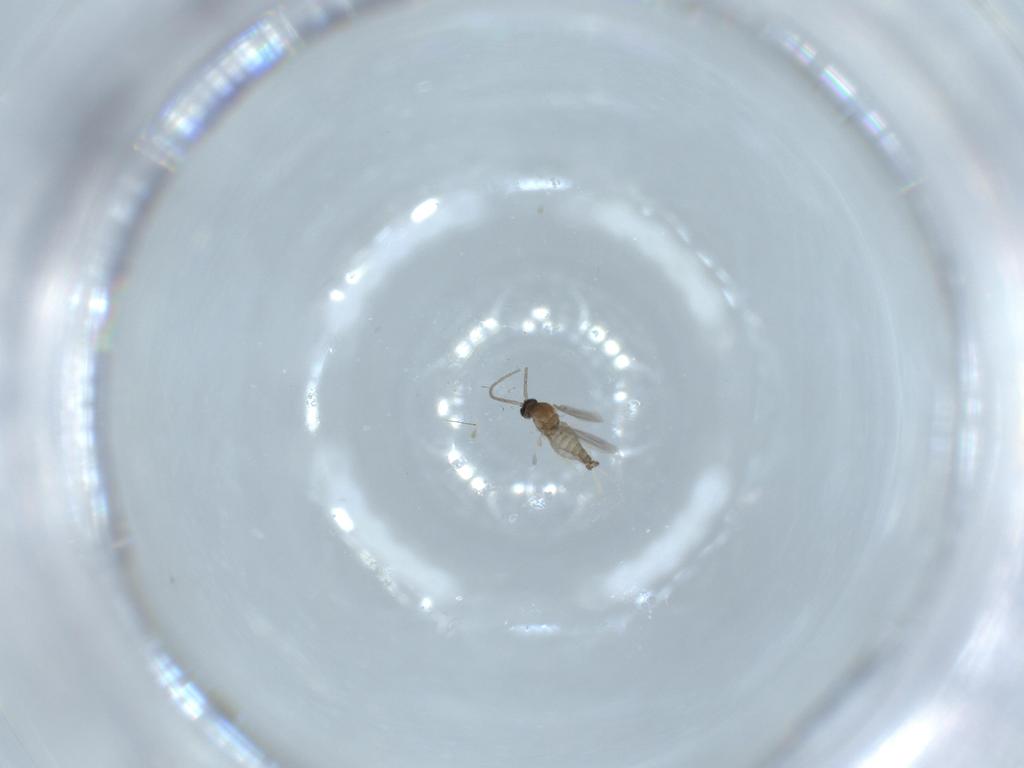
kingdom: Animalia
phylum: Arthropoda
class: Insecta
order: Diptera
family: Cecidomyiidae
